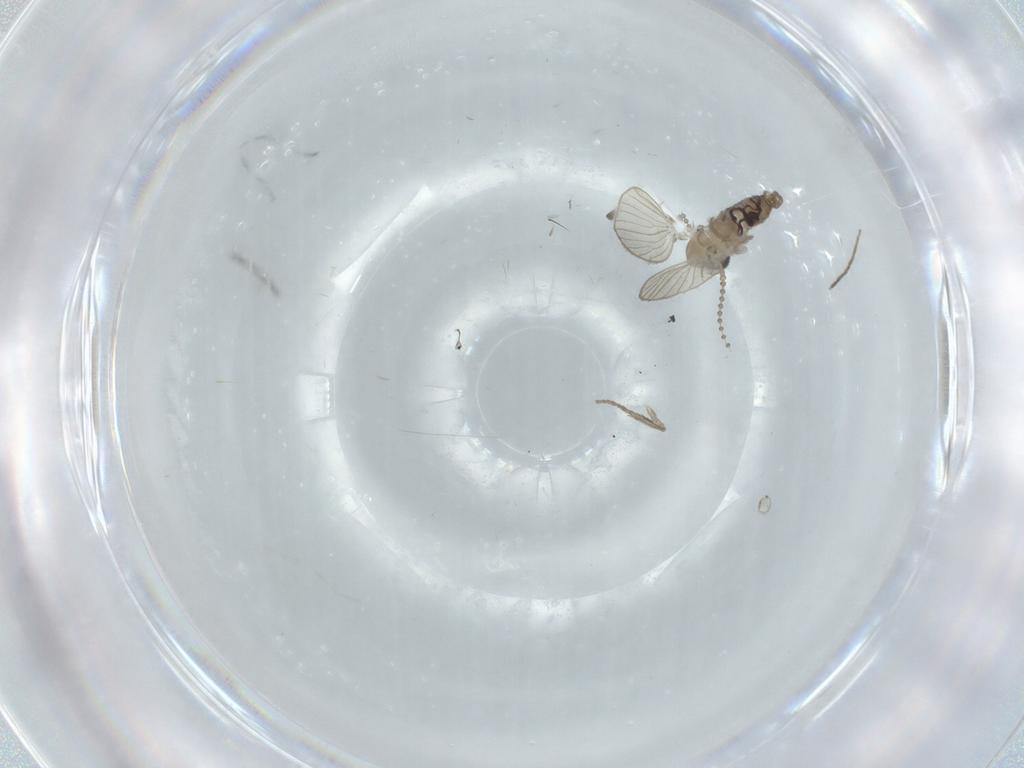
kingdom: Animalia
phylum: Arthropoda
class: Insecta
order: Diptera
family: Psychodidae
